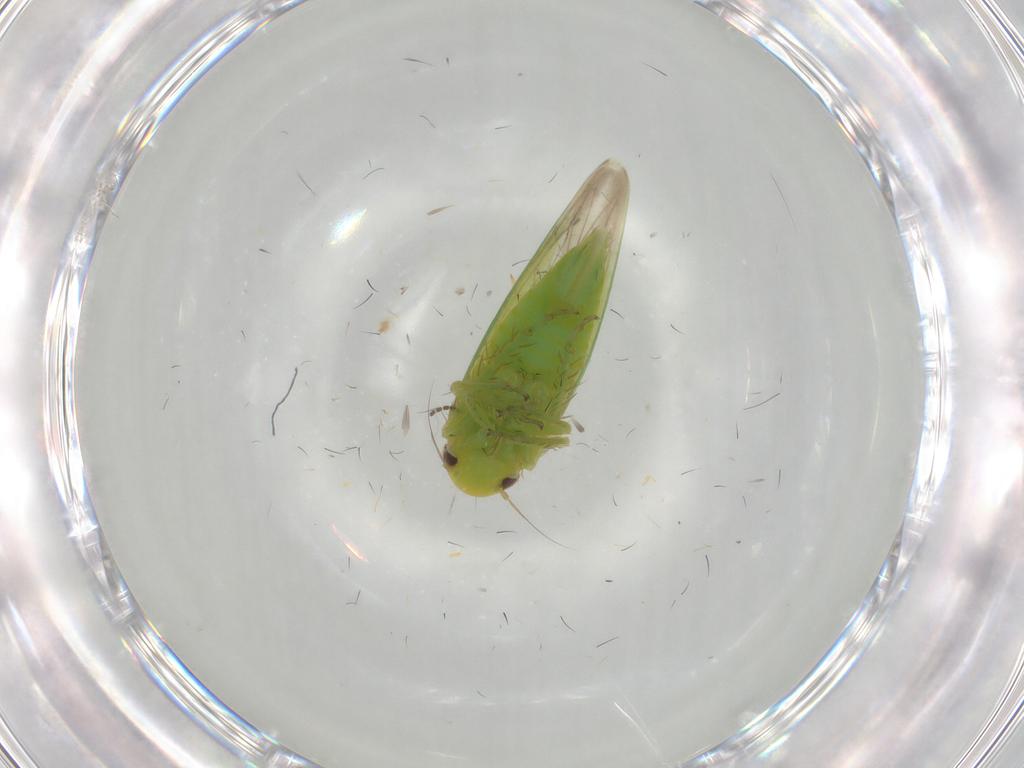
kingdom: Animalia
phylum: Arthropoda
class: Insecta
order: Hemiptera
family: Cicadellidae
